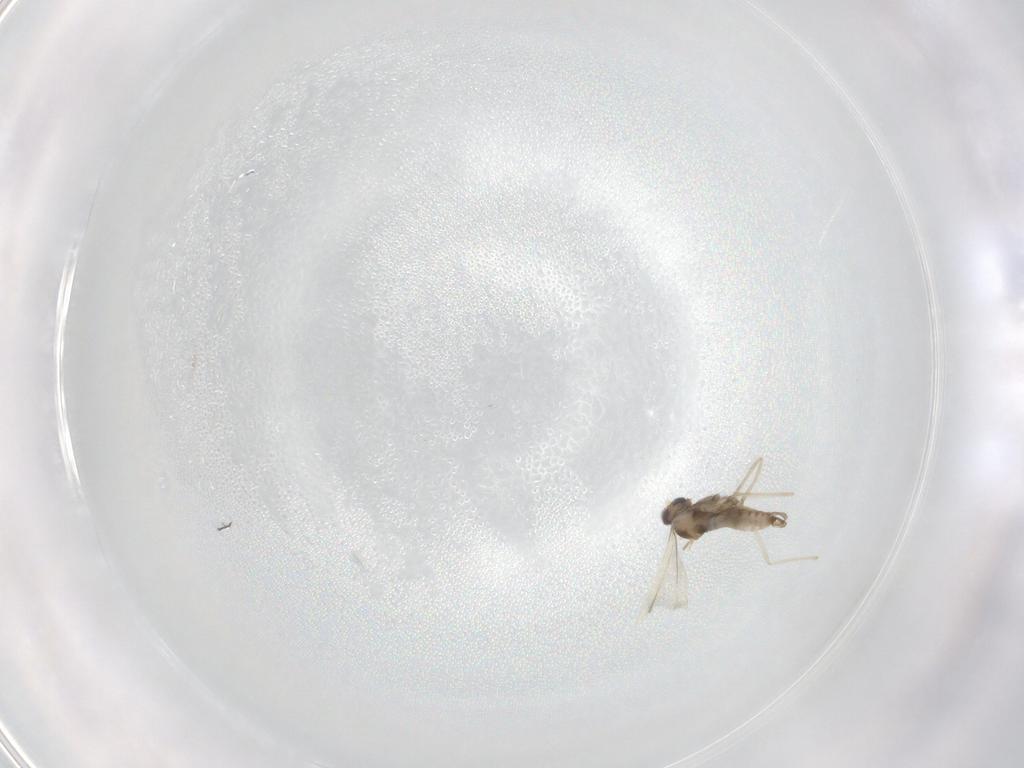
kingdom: Animalia
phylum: Arthropoda
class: Insecta
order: Diptera
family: Cecidomyiidae
